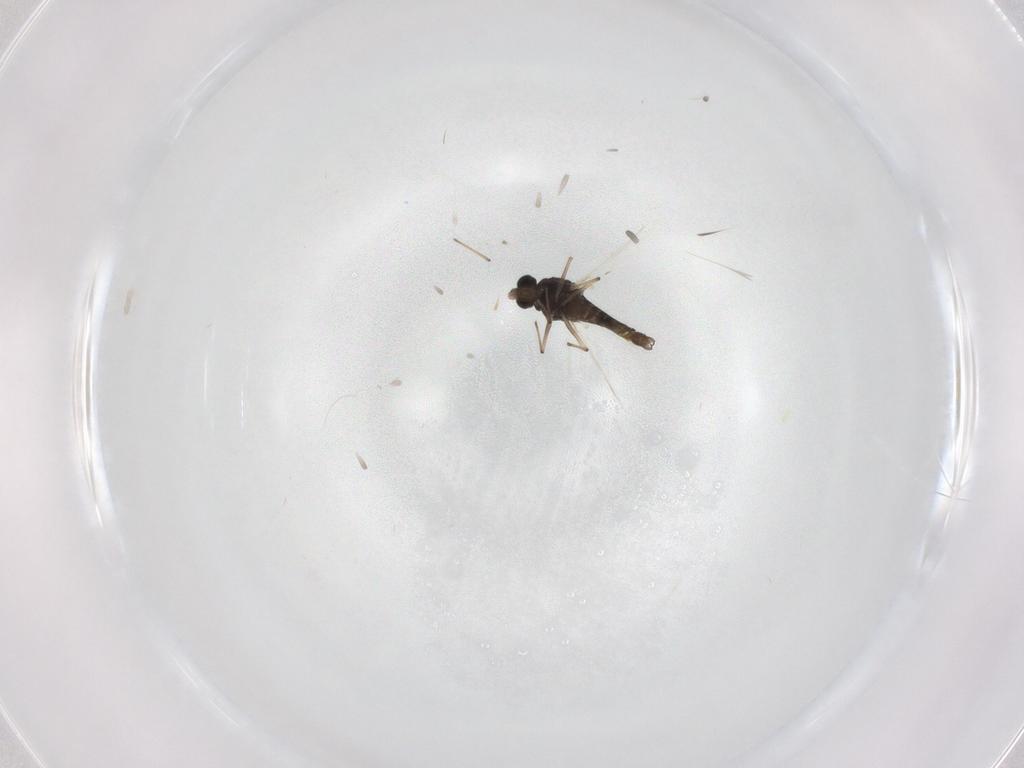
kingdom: Animalia
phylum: Arthropoda
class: Insecta
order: Diptera
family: Chironomidae
